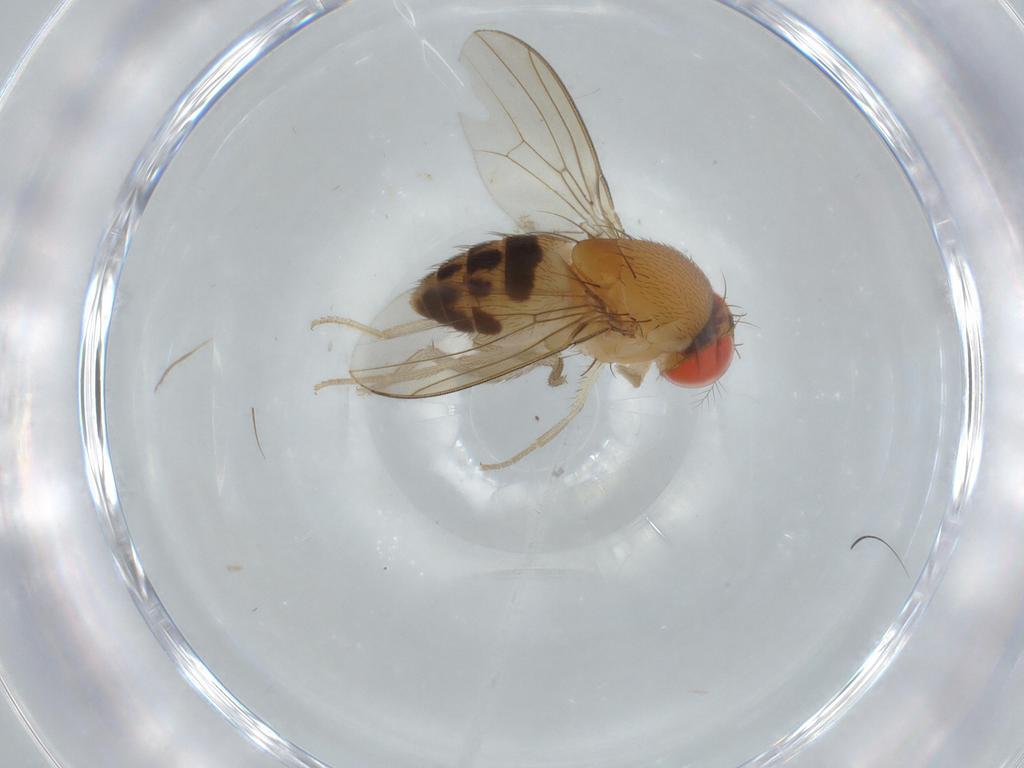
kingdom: Animalia
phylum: Arthropoda
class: Insecta
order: Diptera
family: Drosophilidae
